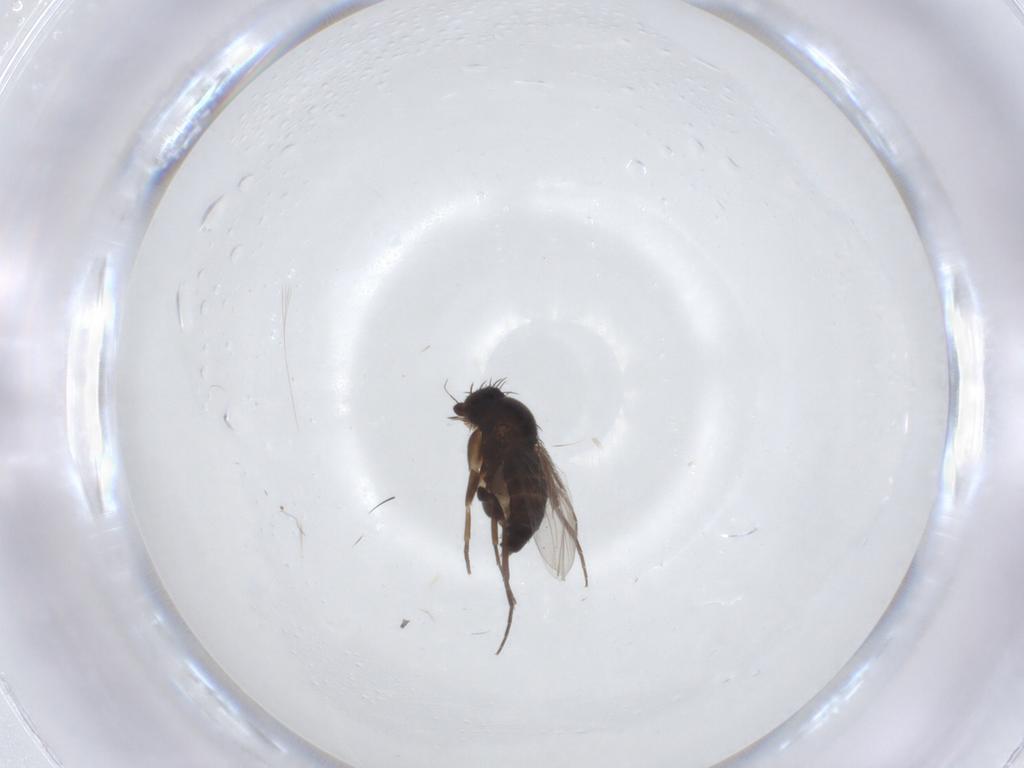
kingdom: Animalia
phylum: Arthropoda
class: Insecta
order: Diptera
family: Phoridae
